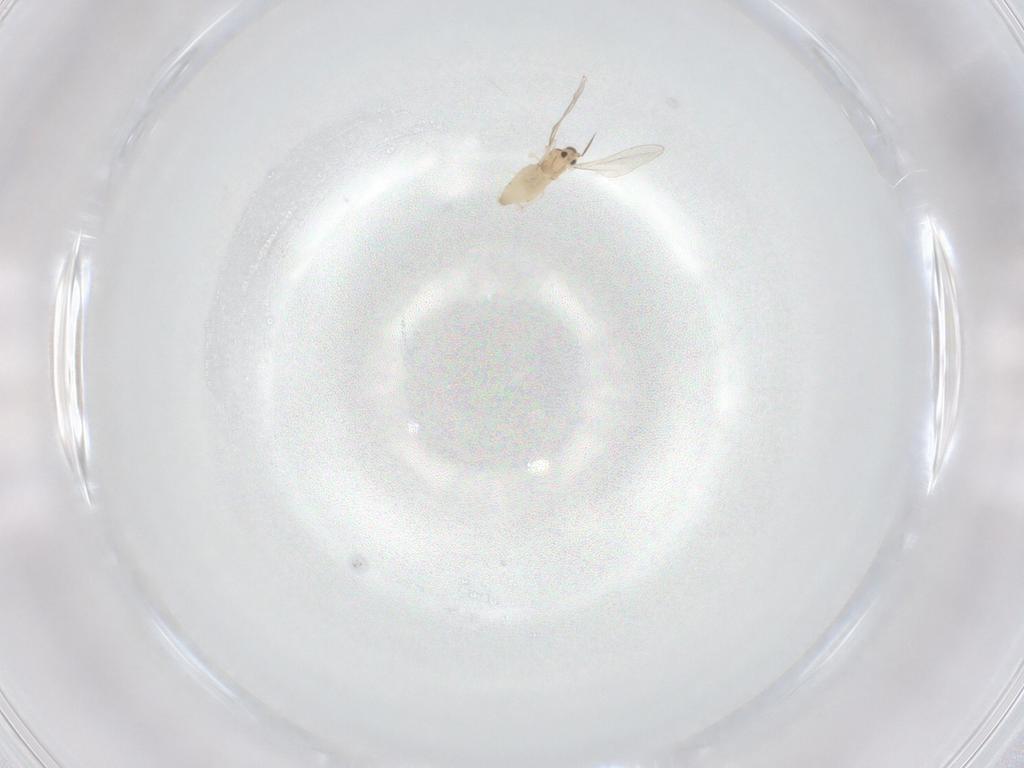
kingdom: Animalia
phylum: Arthropoda
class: Insecta
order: Diptera
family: Cecidomyiidae
